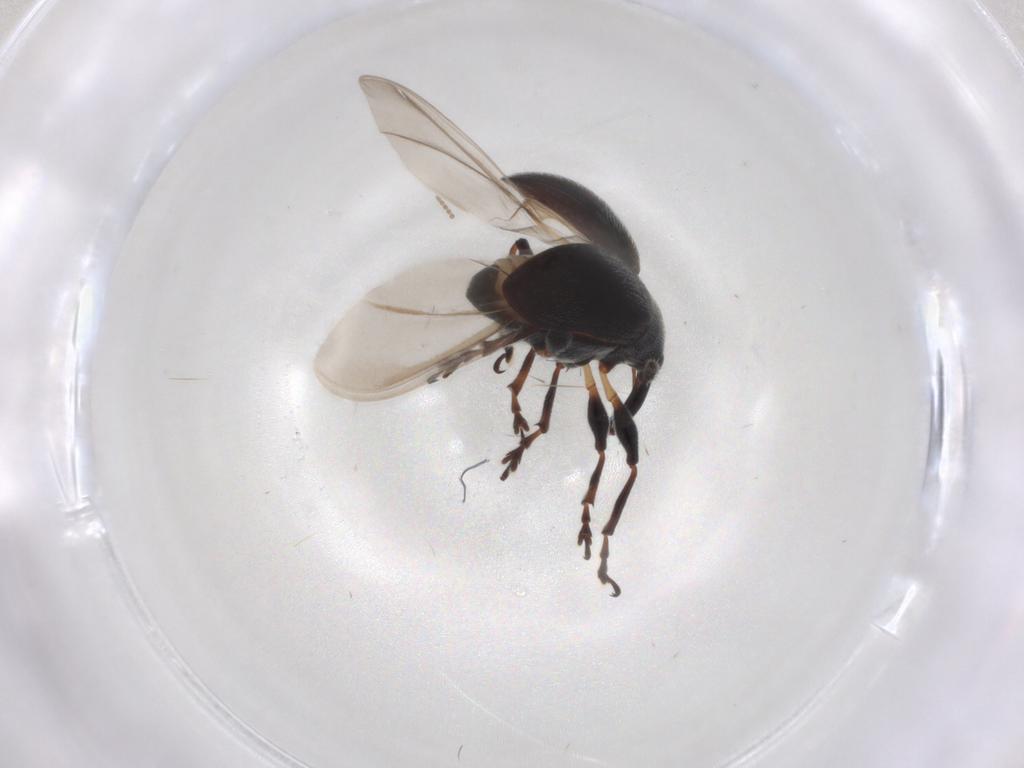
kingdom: Animalia
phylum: Arthropoda
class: Insecta
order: Coleoptera
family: Brentidae
